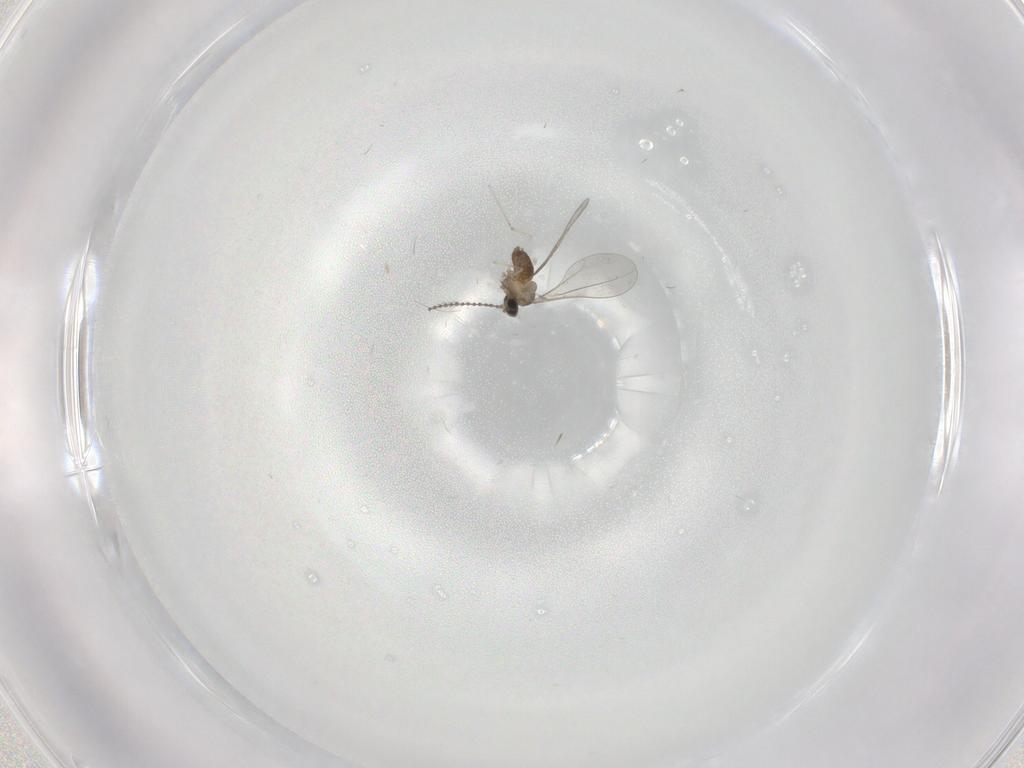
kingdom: Animalia
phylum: Arthropoda
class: Insecta
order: Diptera
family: Cecidomyiidae
